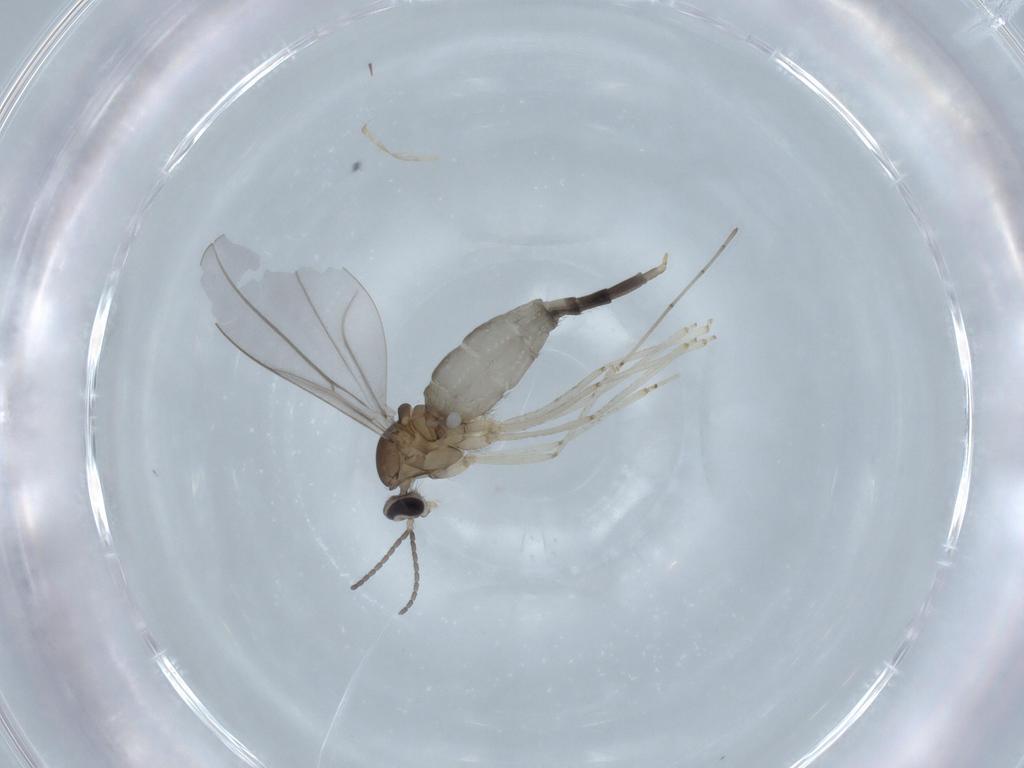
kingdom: Animalia
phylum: Arthropoda
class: Insecta
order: Diptera
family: Cecidomyiidae
